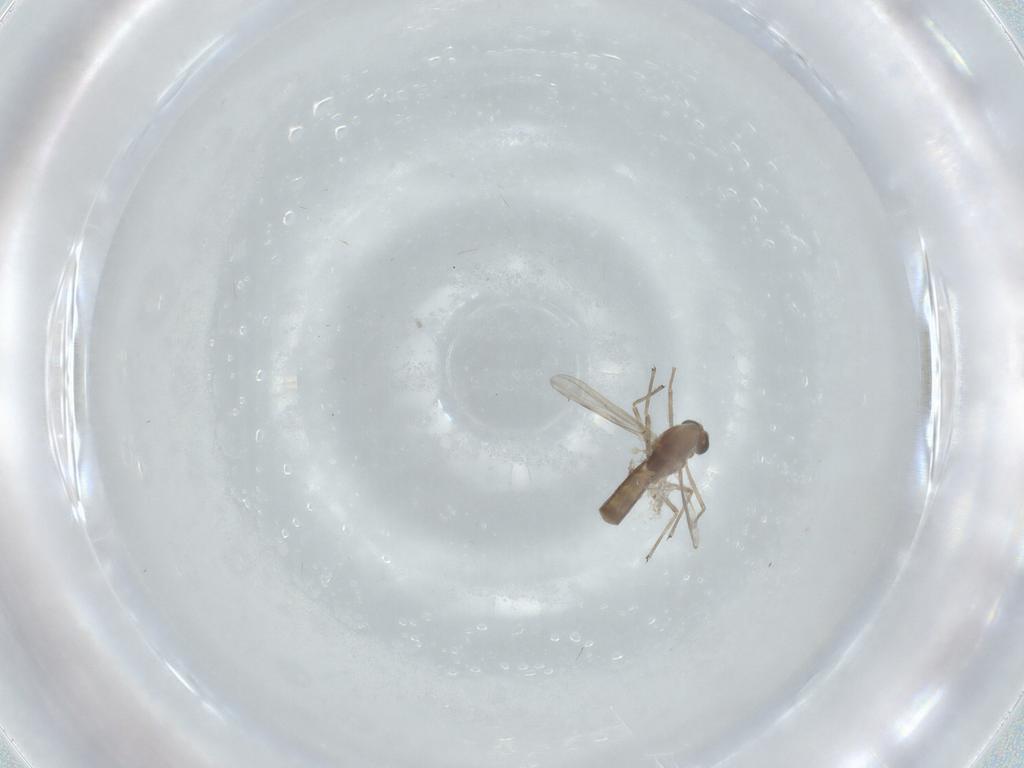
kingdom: Animalia
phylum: Arthropoda
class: Insecta
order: Diptera
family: Chironomidae
